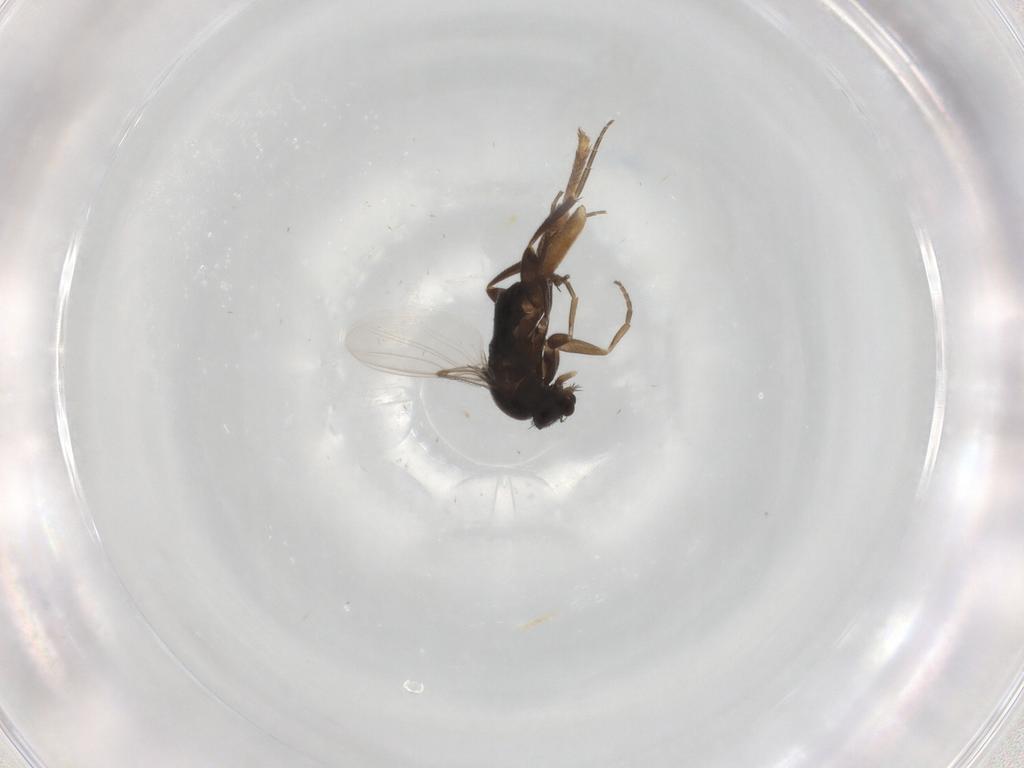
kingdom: Animalia
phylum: Arthropoda
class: Insecta
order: Diptera
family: Phoridae
